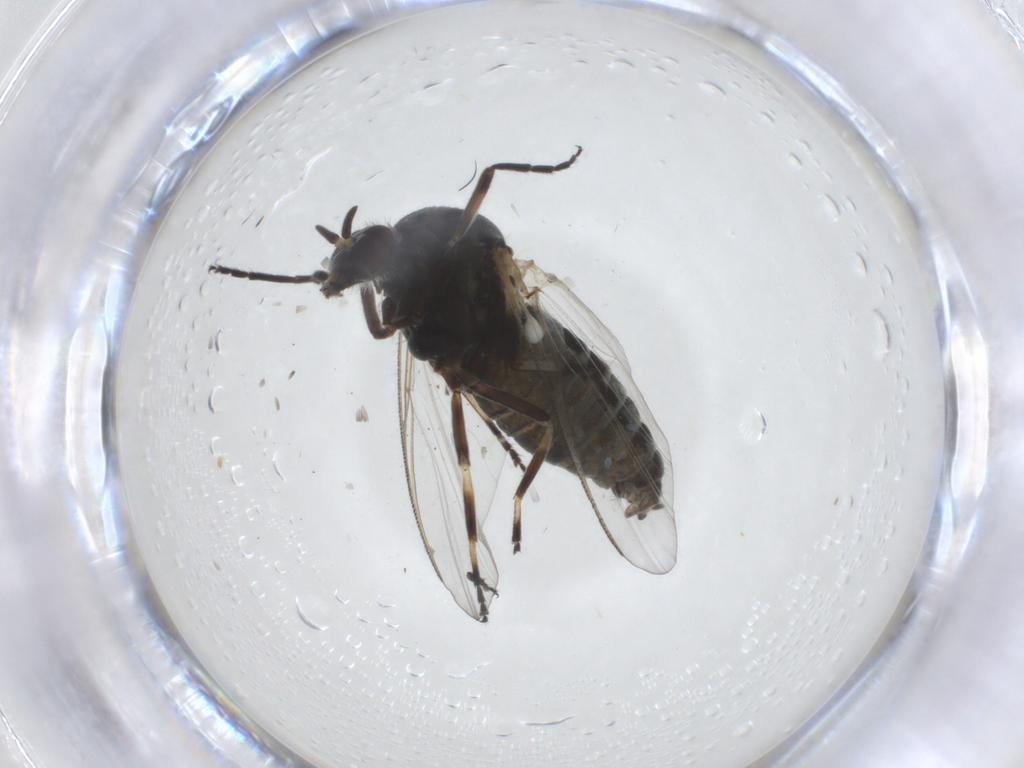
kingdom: Animalia
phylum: Arthropoda
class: Insecta
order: Diptera
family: Simuliidae
